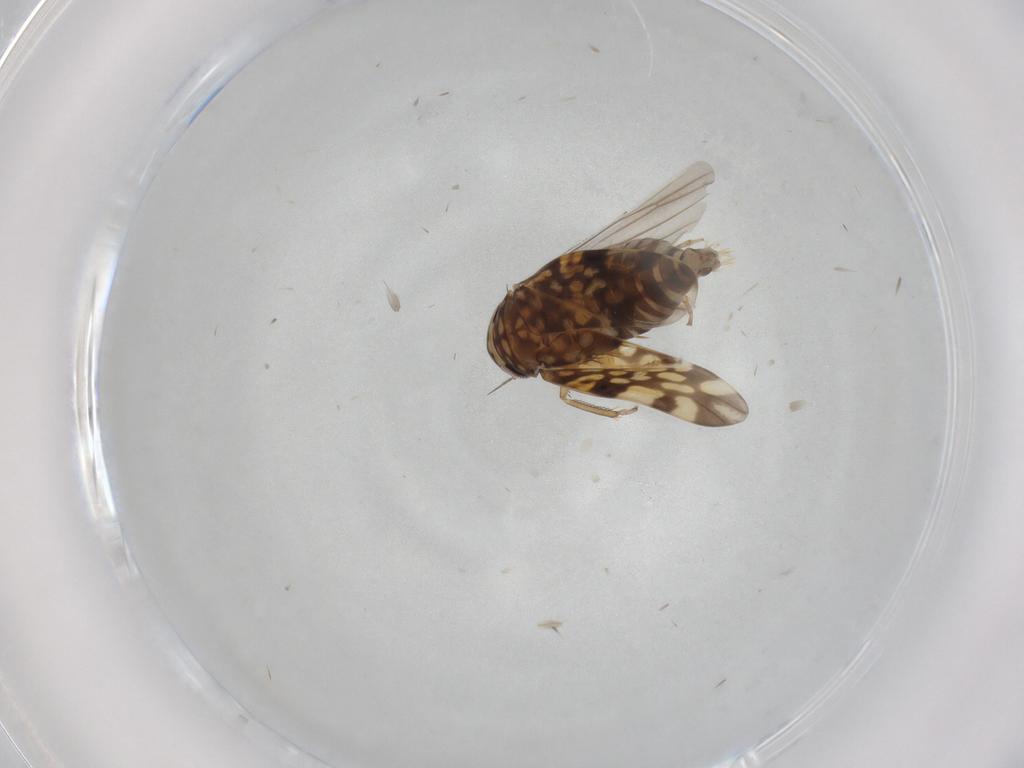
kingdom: Animalia
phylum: Arthropoda
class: Insecta
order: Hemiptera
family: Cicadellidae
